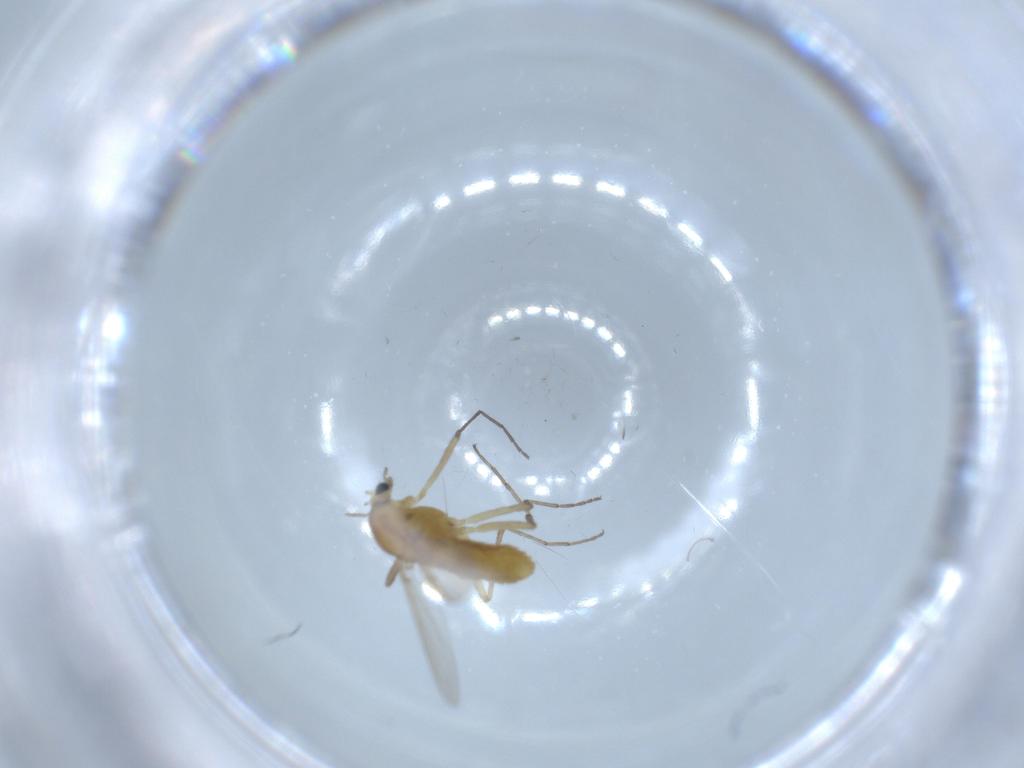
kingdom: Animalia
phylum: Arthropoda
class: Insecta
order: Diptera
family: Chironomidae
